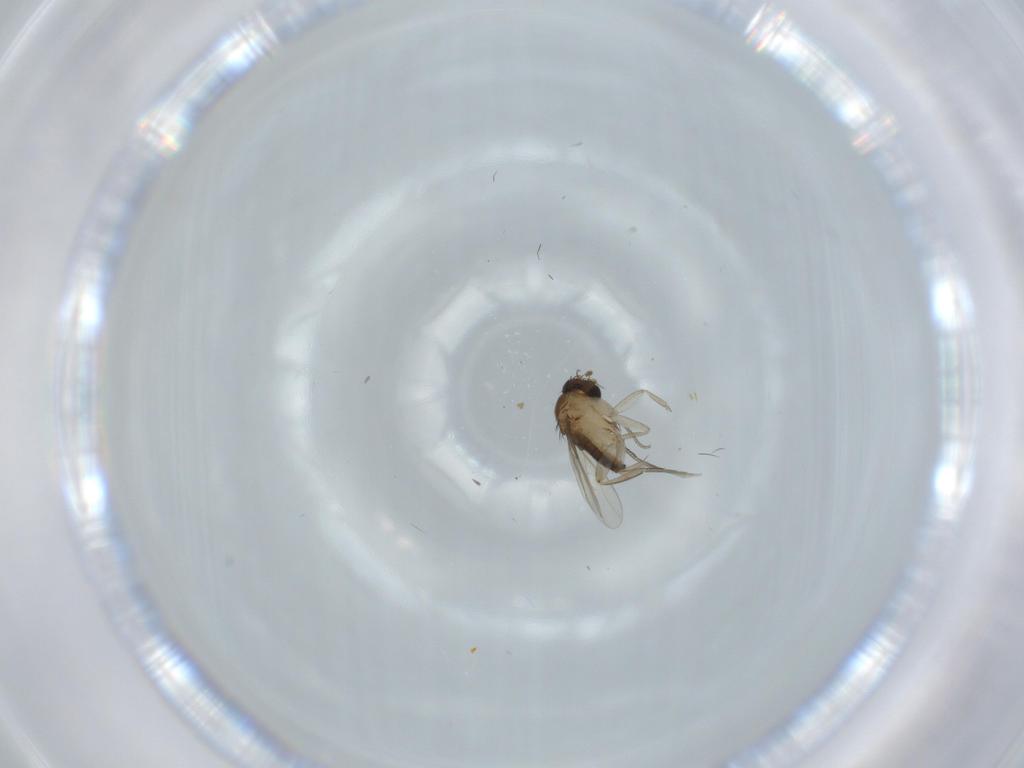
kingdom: Animalia
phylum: Arthropoda
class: Insecta
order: Diptera
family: Phoridae
